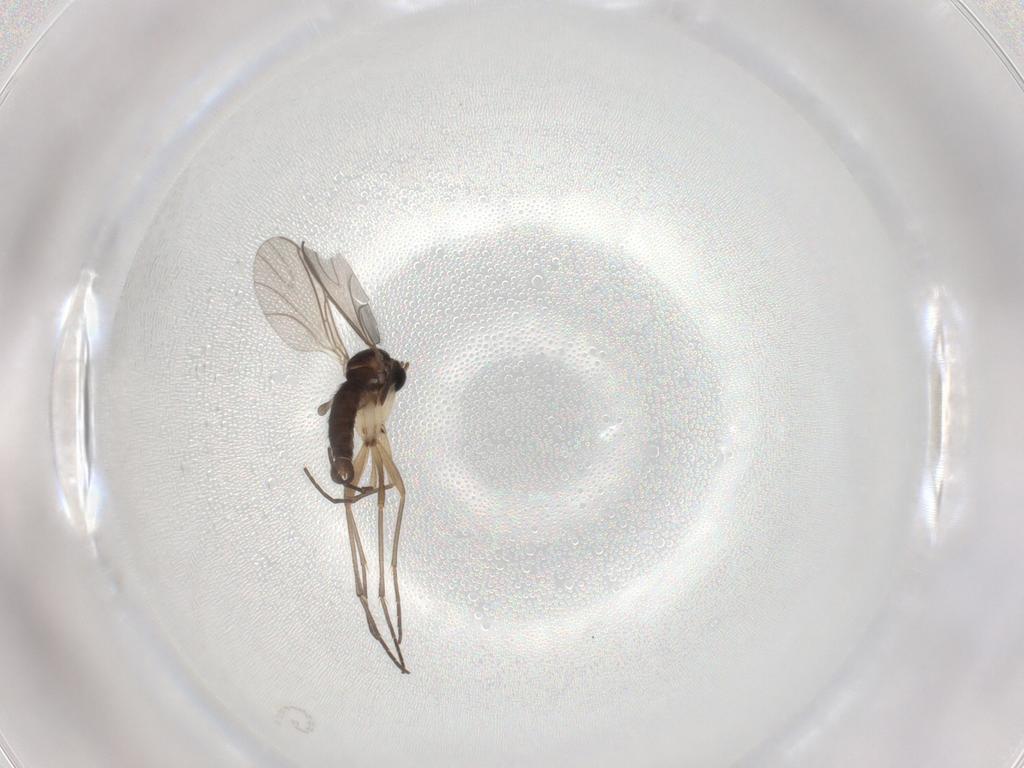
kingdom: Animalia
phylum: Arthropoda
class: Insecta
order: Diptera
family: Sciaridae
